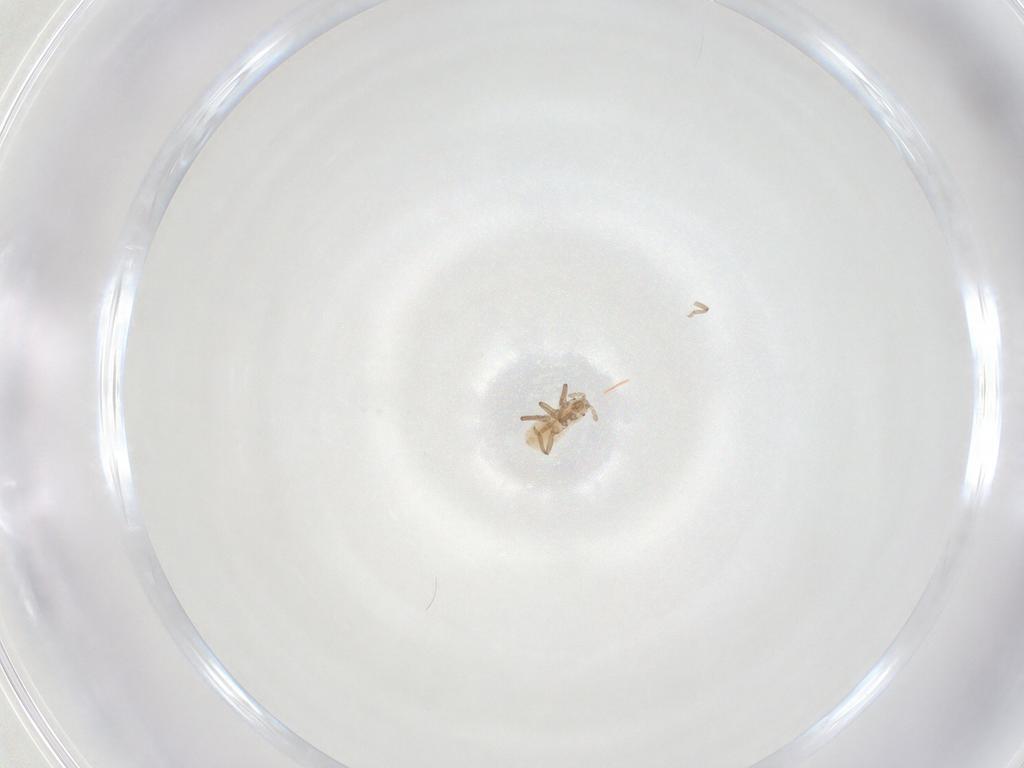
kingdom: Animalia
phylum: Arthropoda
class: Insecta
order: Hemiptera
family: Aphididae
